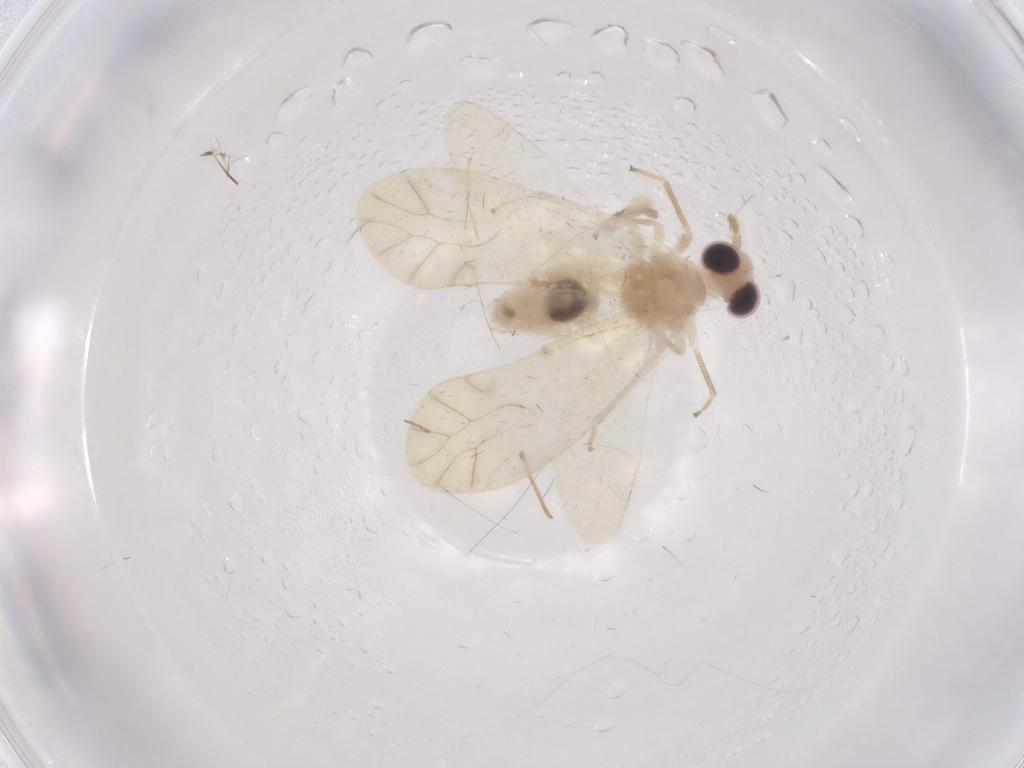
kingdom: Animalia
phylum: Arthropoda
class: Insecta
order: Psocodea
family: Caeciliusidae
